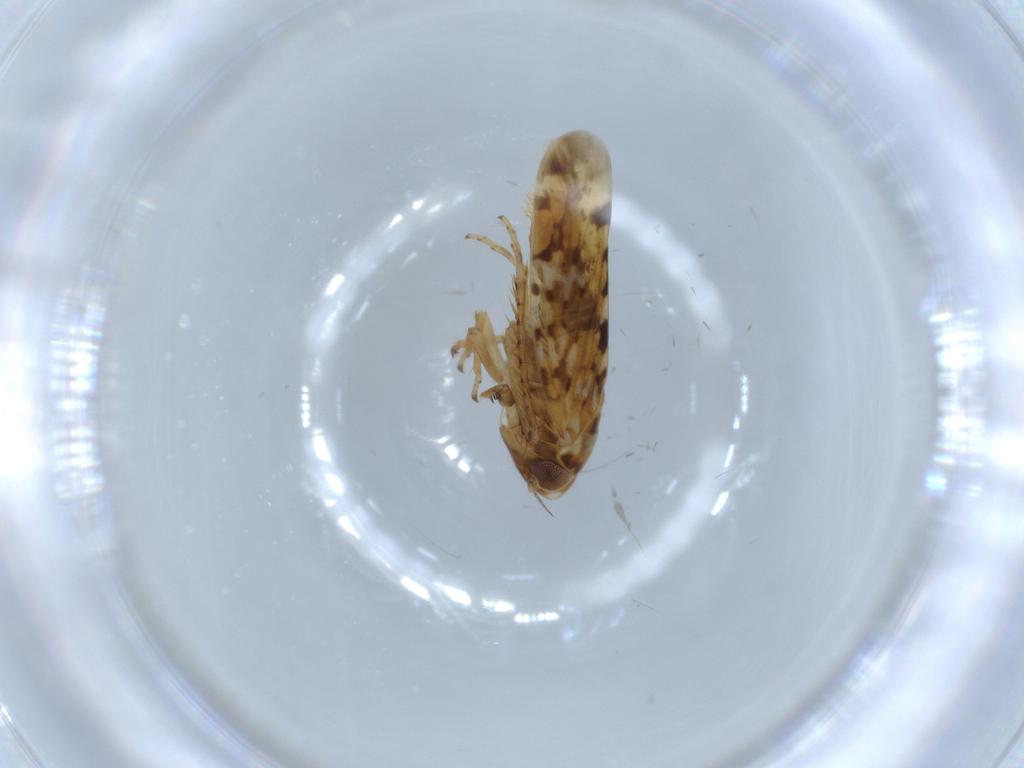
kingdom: Animalia
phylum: Arthropoda
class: Insecta
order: Hemiptera
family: Cicadellidae
